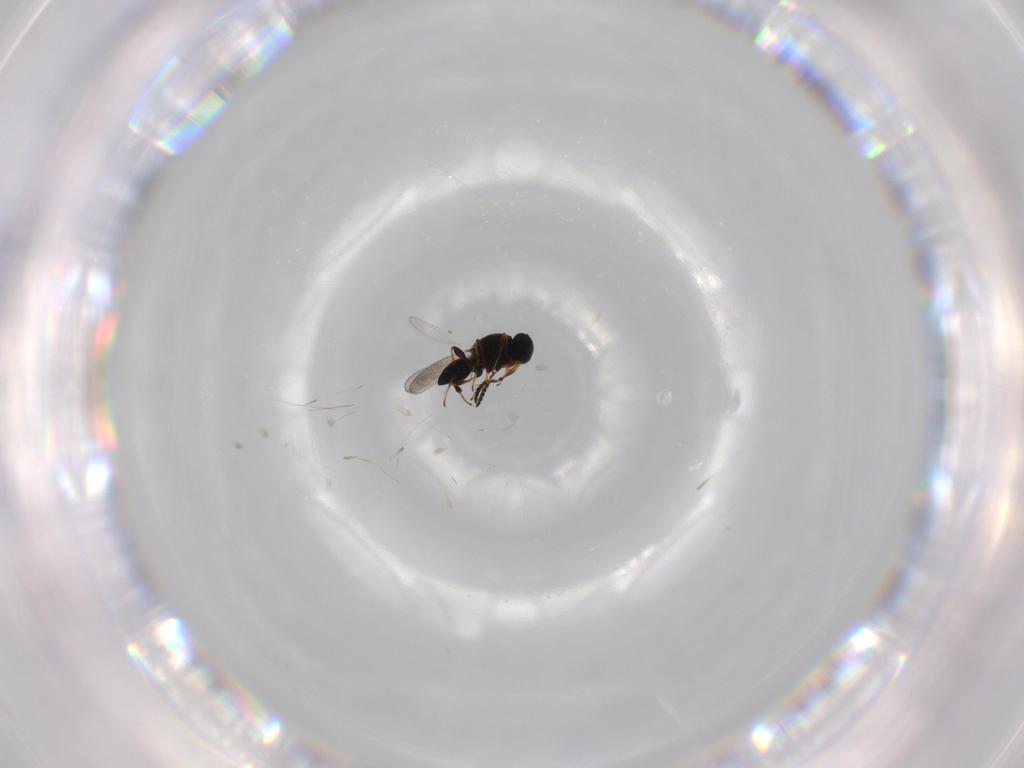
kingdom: Animalia
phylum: Arthropoda
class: Insecta
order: Hymenoptera
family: Platygastridae
